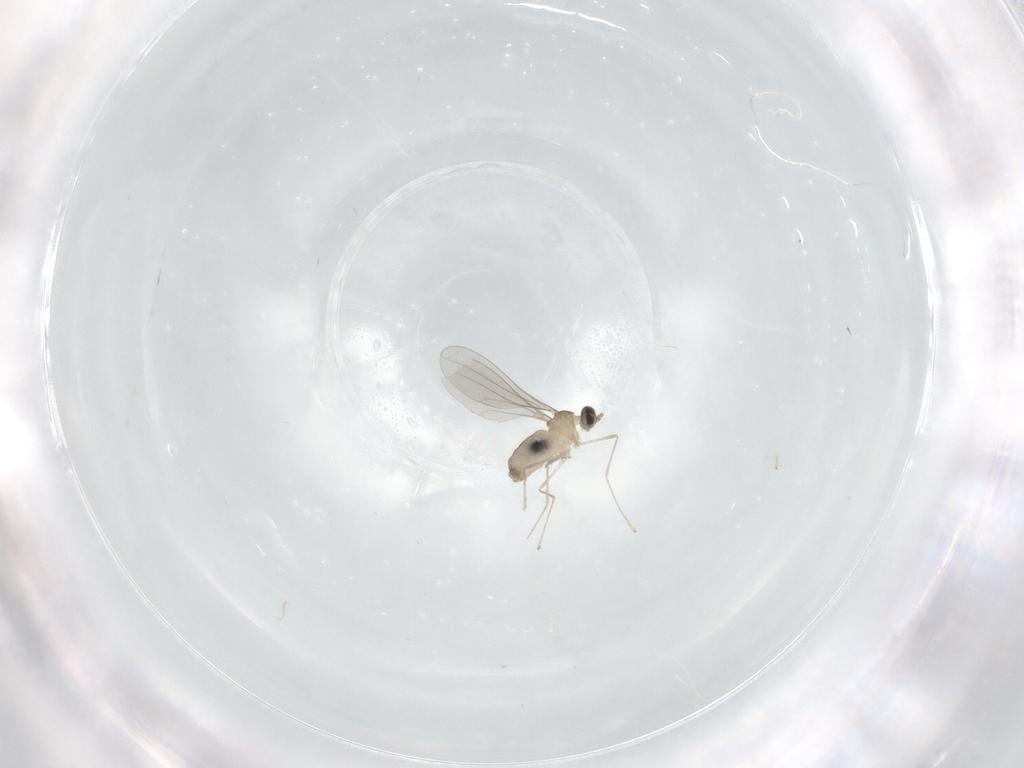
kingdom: Animalia
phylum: Arthropoda
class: Insecta
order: Diptera
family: Cecidomyiidae
